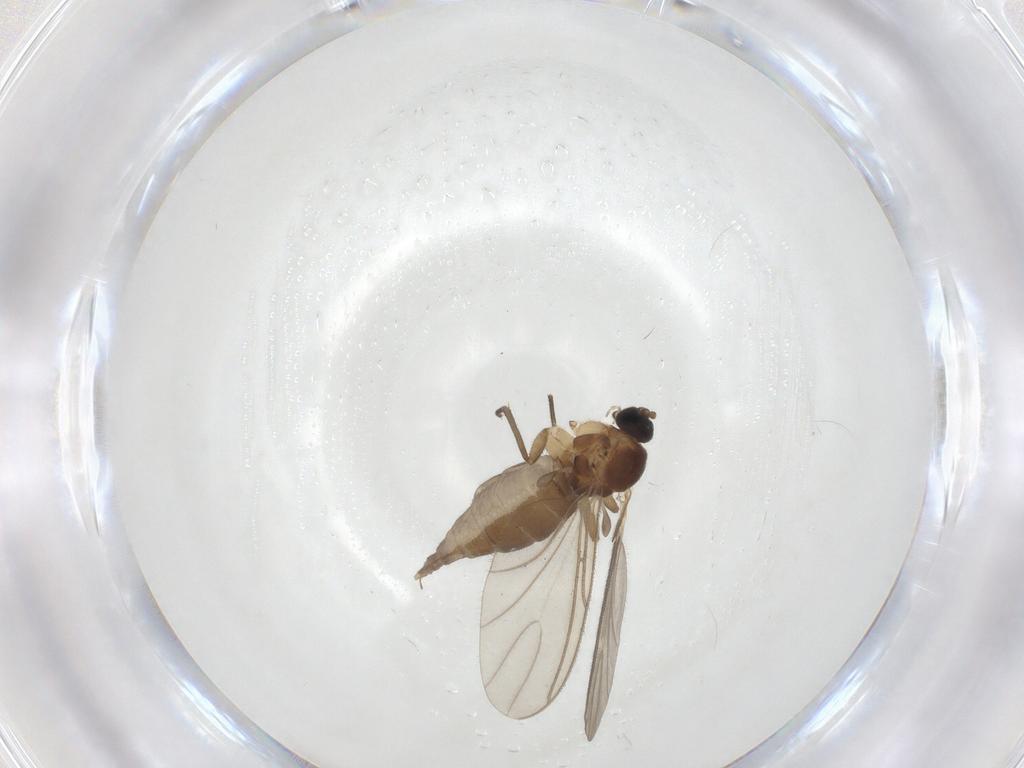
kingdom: Animalia
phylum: Arthropoda
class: Insecta
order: Diptera
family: Sciaridae
